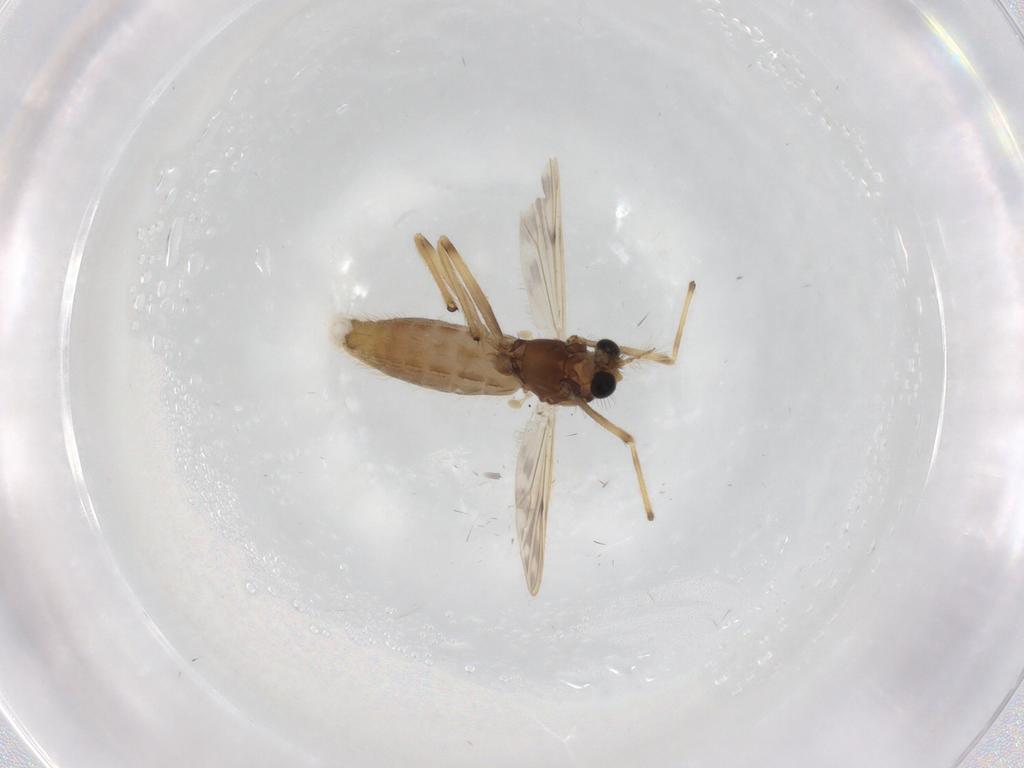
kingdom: Animalia
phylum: Arthropoda
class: Insecta
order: Diptera
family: Chironomidae
